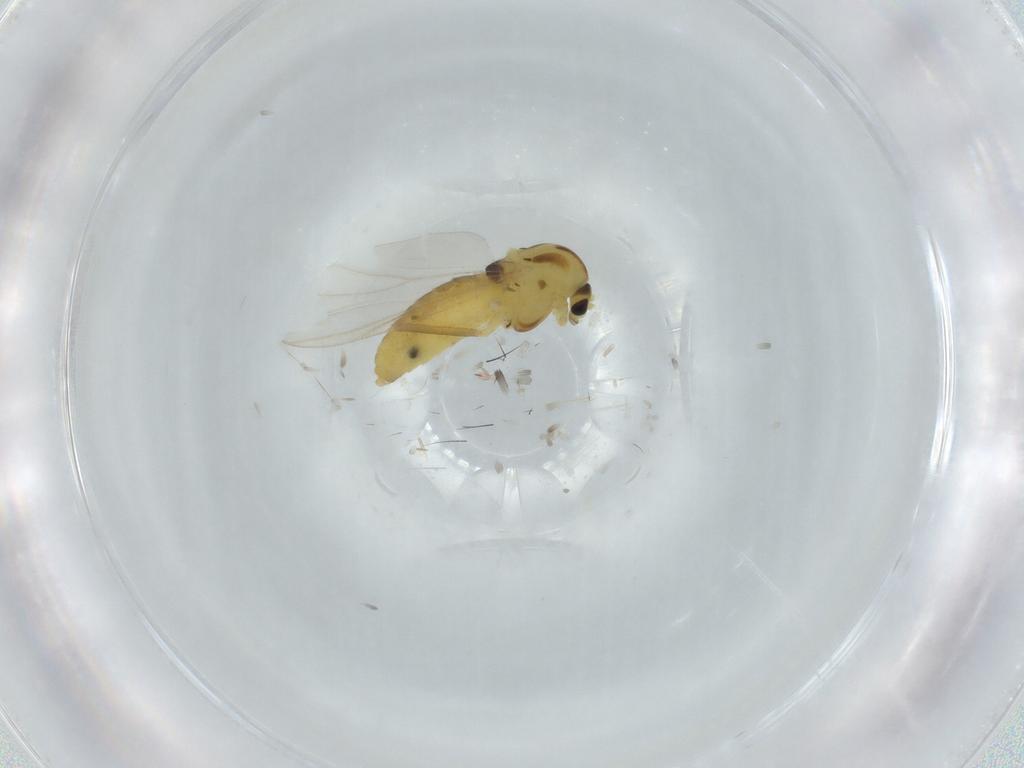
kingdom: Animalia
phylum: Arthropoda
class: Insecta
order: Diptera
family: Chironomidae
